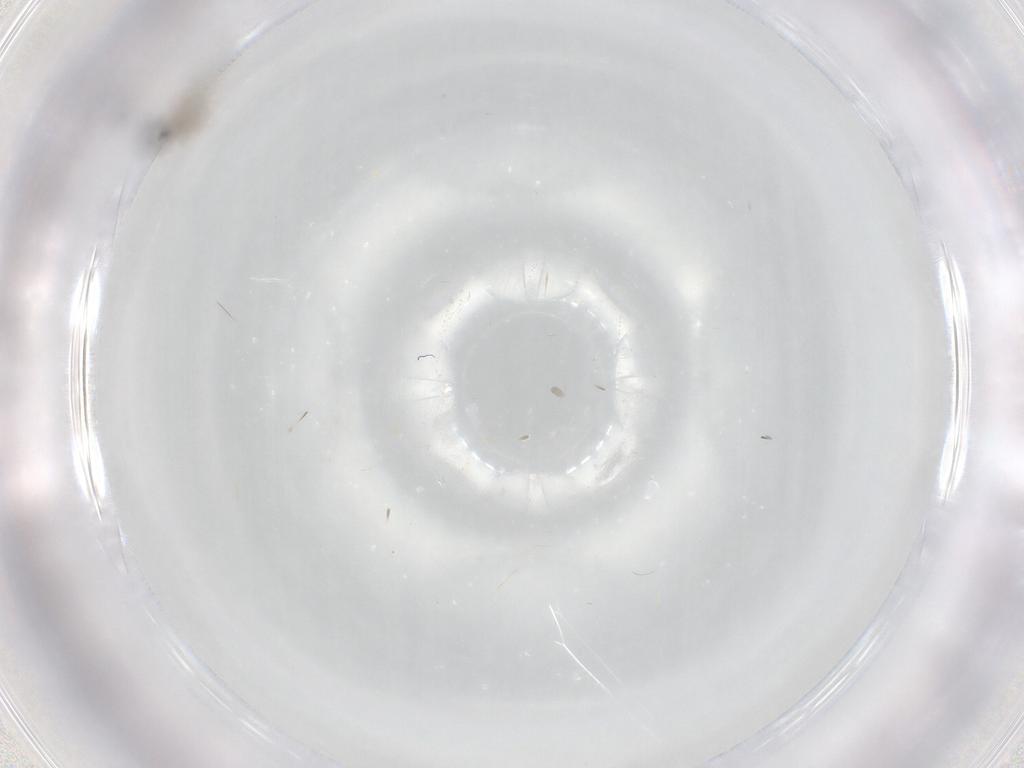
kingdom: Animalia
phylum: Arthropoda
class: Insecta
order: Diptera
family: Cecidomyiidae
